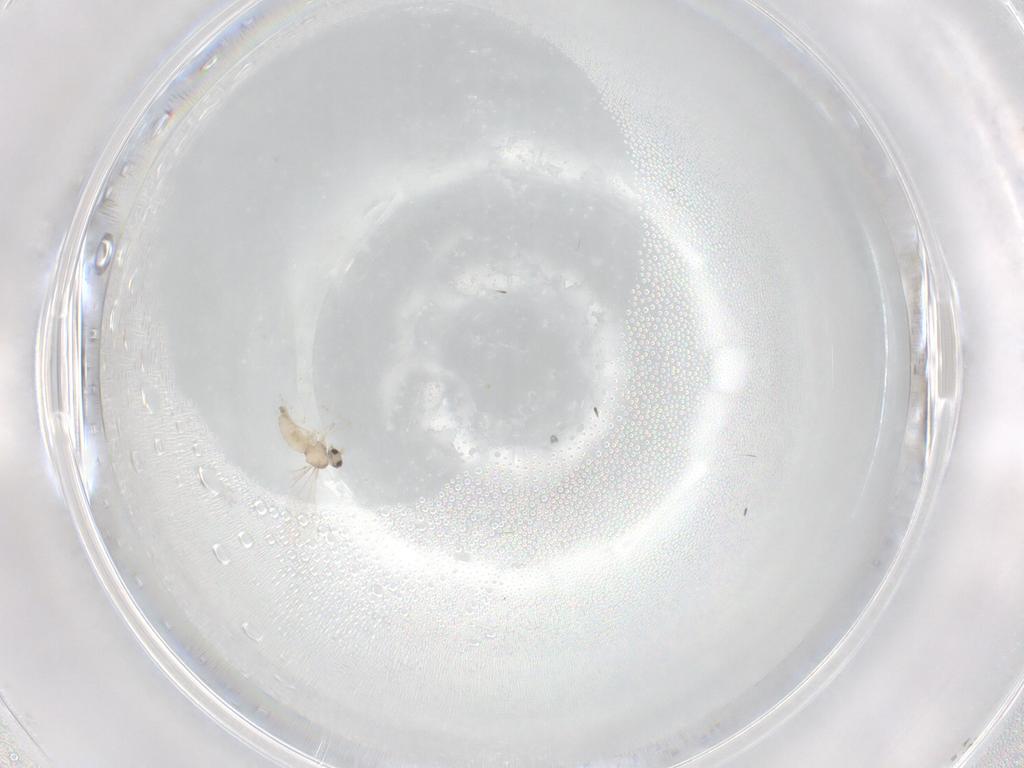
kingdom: Animalia
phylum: Arthropoda
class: Insecta
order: Diptera
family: Cecidomyiidae
